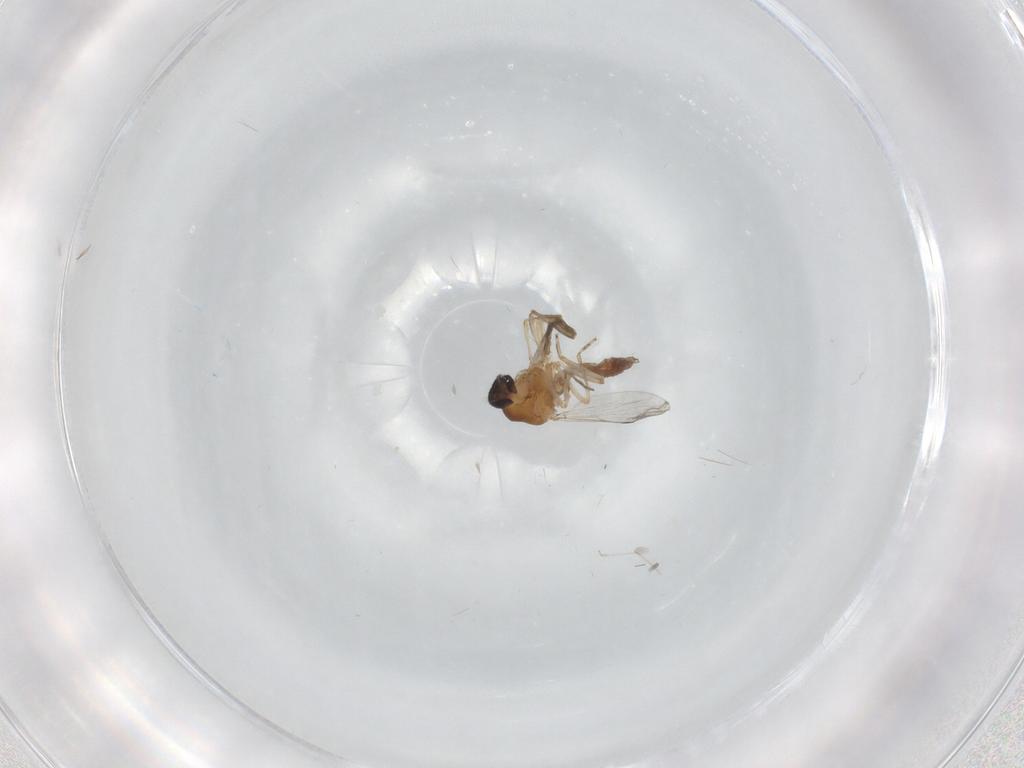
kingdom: Animalia
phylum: Arthropoda
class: Insecta
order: Diptera
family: Ceratopogonidae
